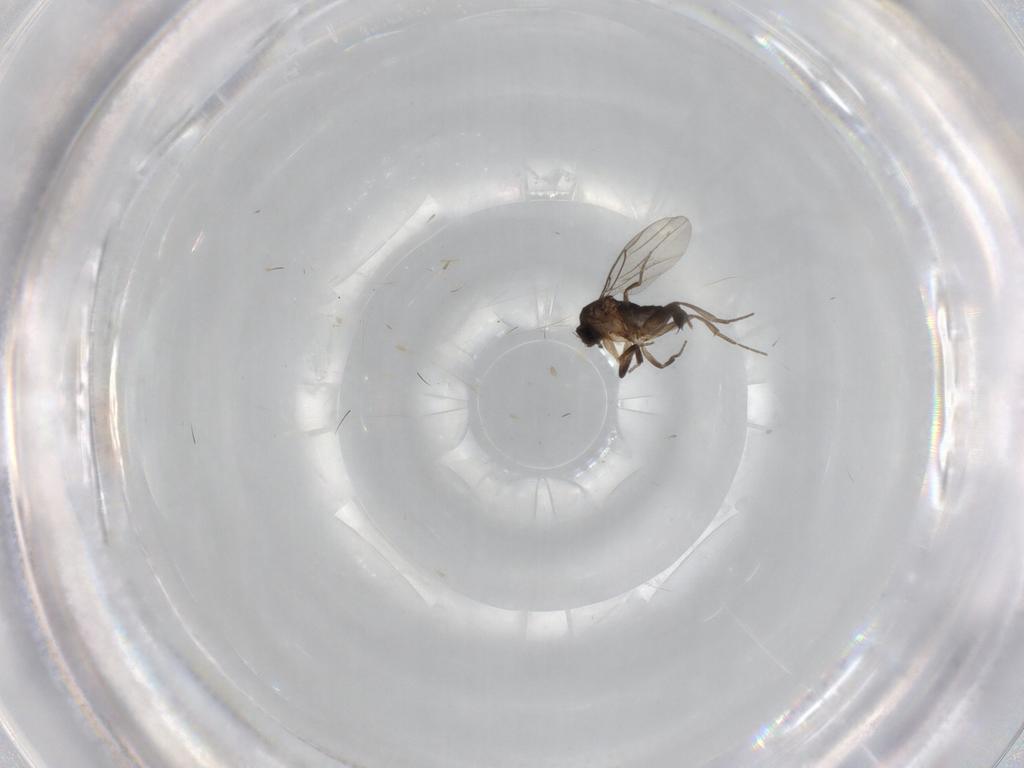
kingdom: Animalia
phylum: Arthropoda
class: Insecta
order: Diptera
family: Phoridae
